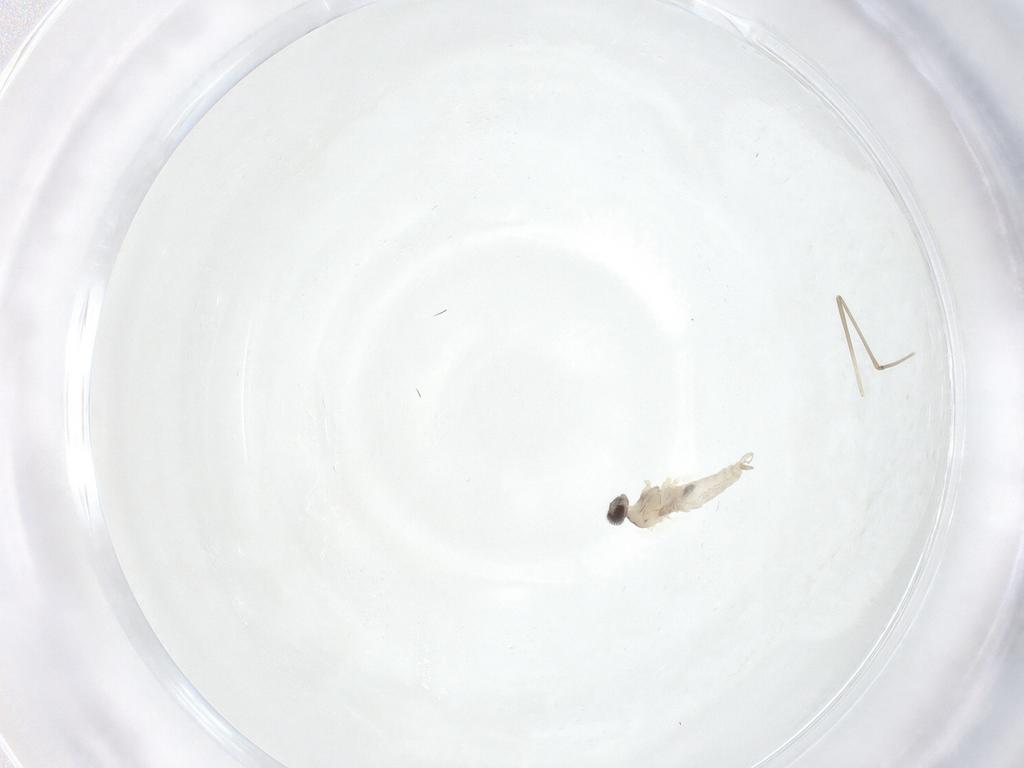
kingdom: Animalia
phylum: Arthropoda
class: Insecta
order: Diptera
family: Cecidomyiidae
